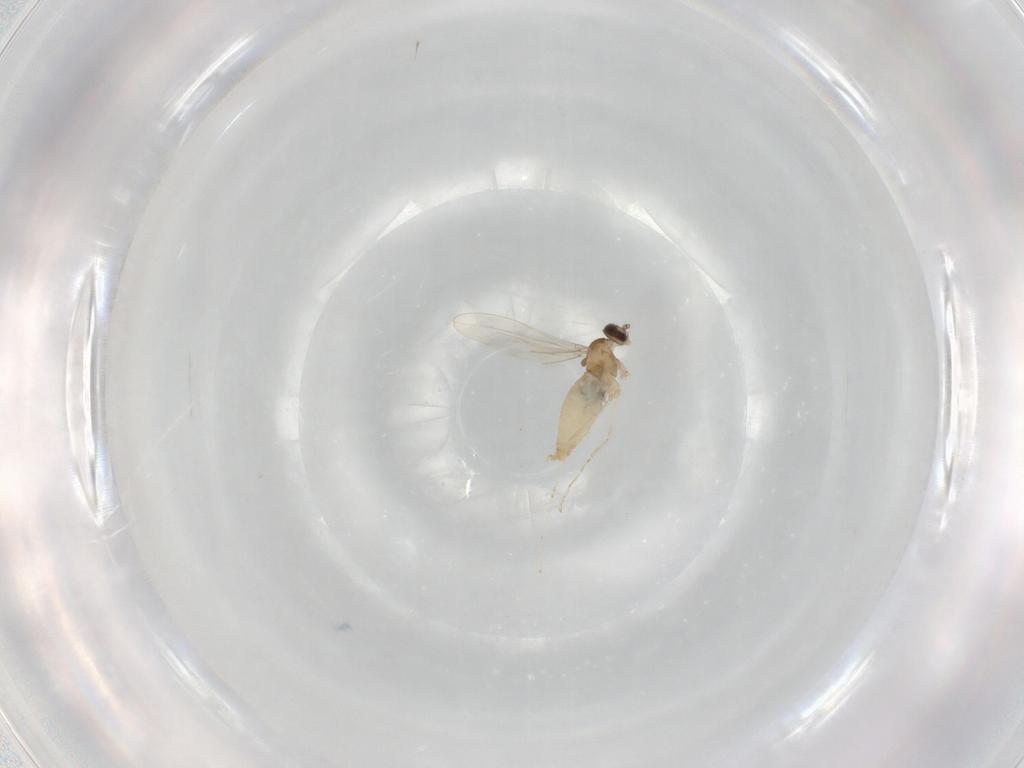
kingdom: Animalia
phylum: Arthropoda
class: Insecta
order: Diptera
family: Cecidomyiidae
